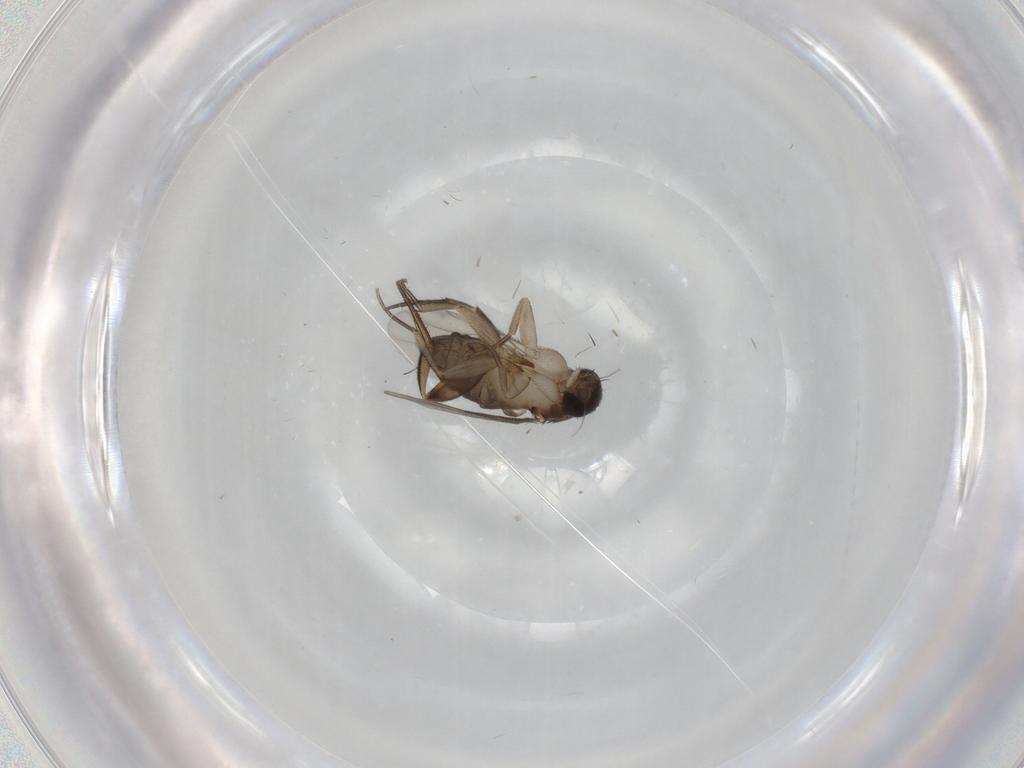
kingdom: Animalia
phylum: Arthropoda
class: Insecta
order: Diptera
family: Phoridae
